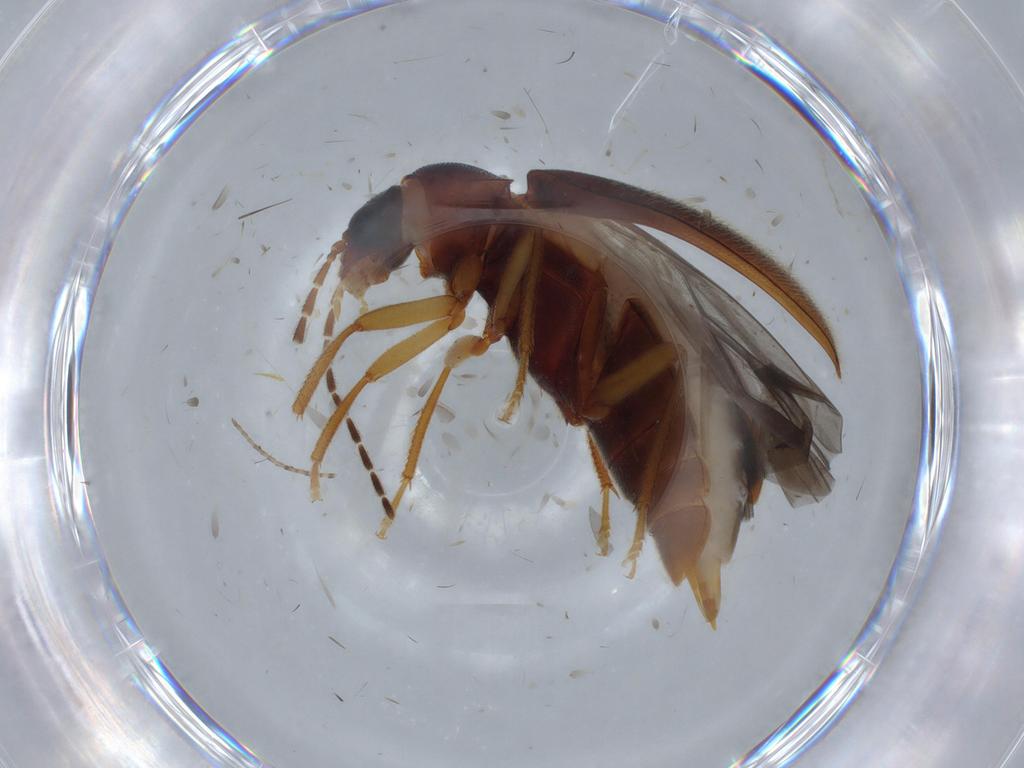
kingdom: Animalia
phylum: Arthropoda
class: Insecta
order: Coleoptera
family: Ptilodactylidae
